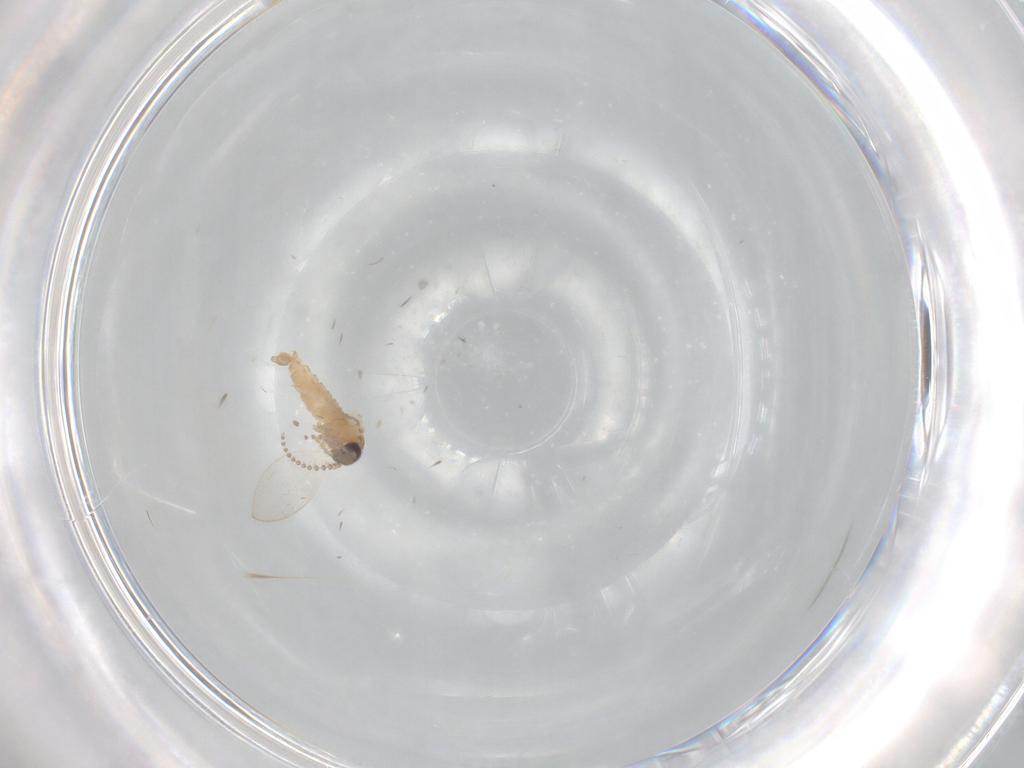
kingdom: Animalia
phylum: Arthropoda
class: Insecta
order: Diptera
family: Psychodidae
